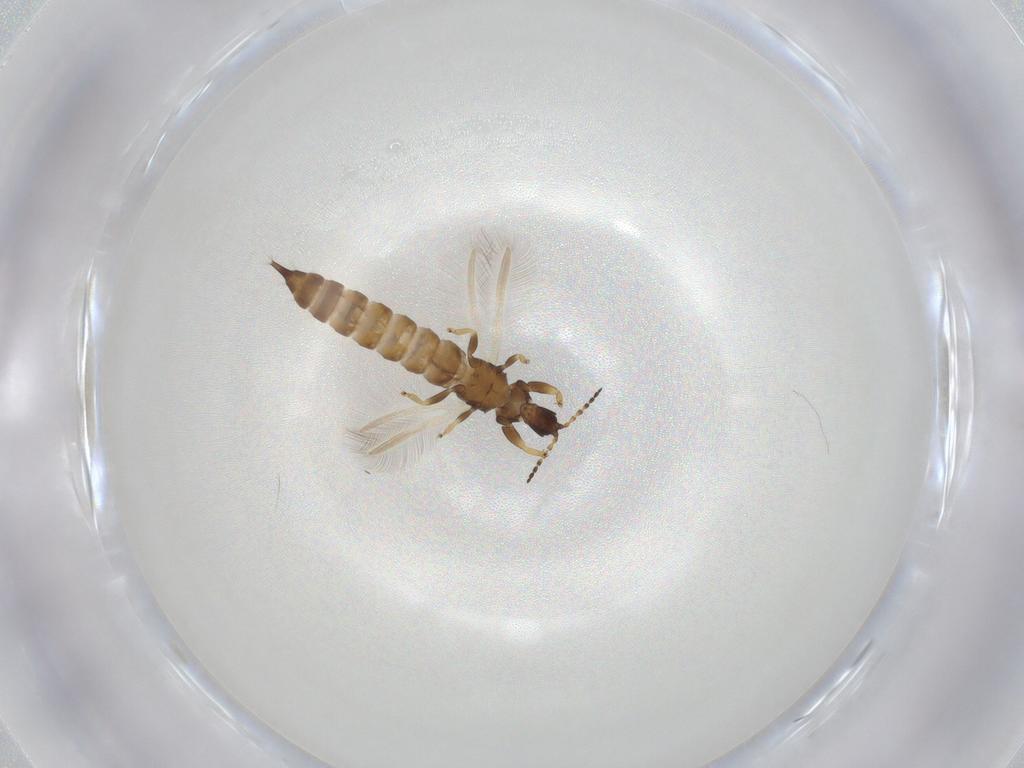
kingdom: Animalia
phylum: Arthropoda
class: Insecta
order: Thysanoptera
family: Phlaeothripidae
